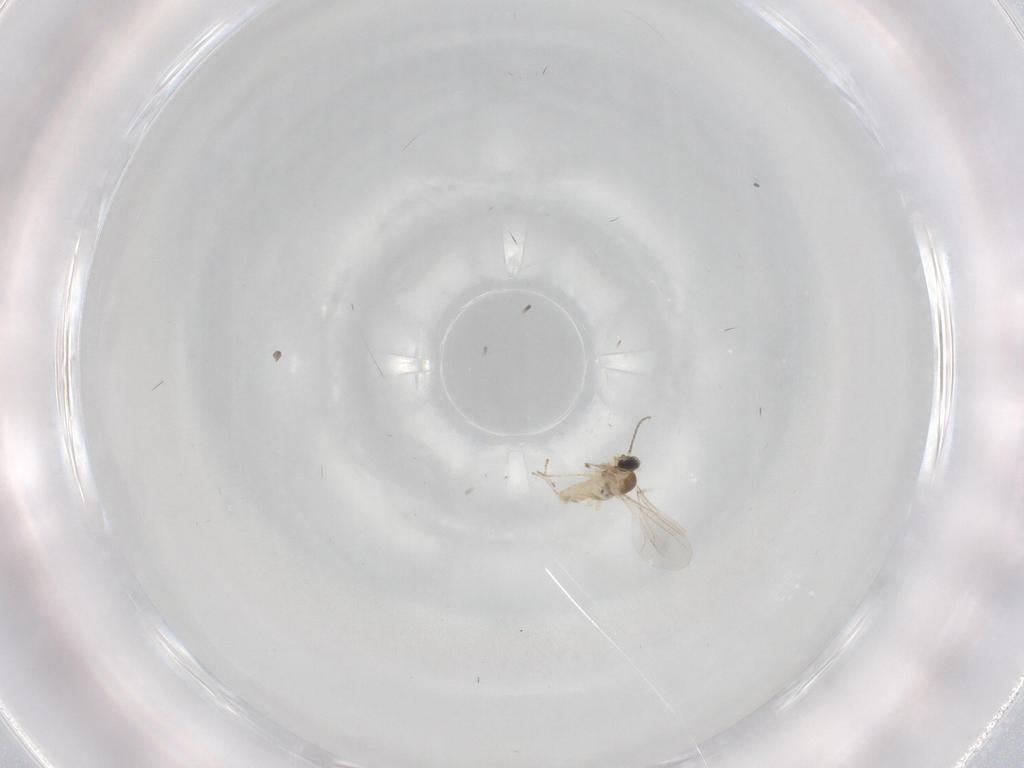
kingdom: Animalia
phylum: Arthropoda
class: Insecta
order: Diptera
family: Cecidomyiidae
